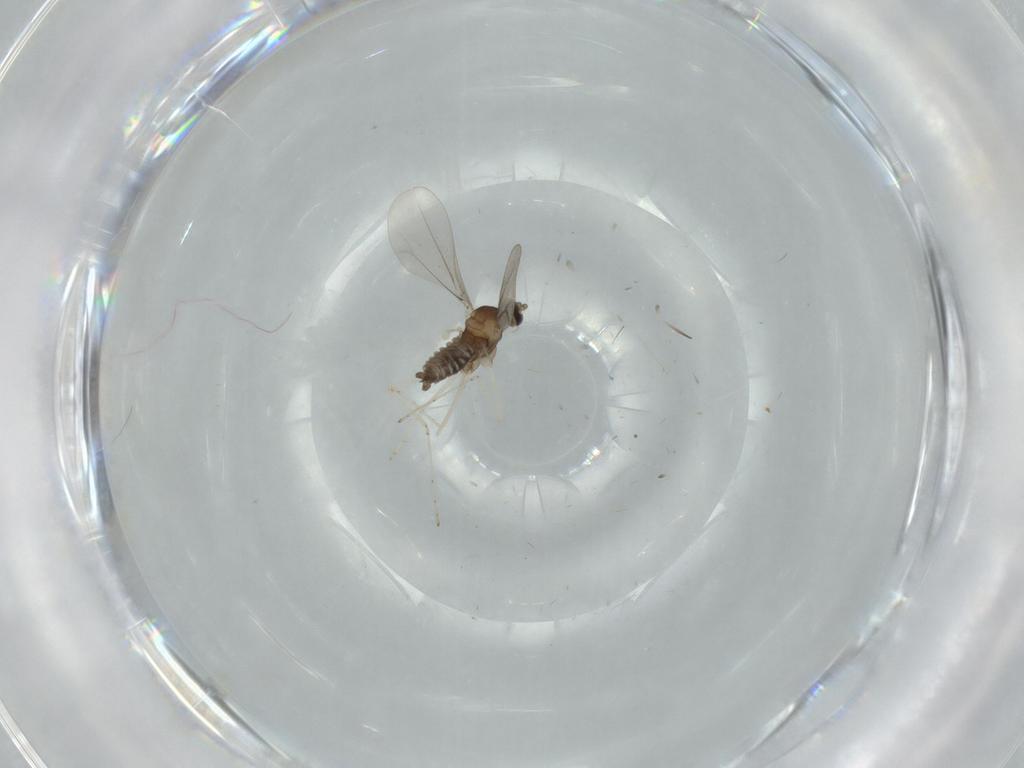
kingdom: Animalia
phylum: Arthropoda
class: Insecta
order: Diptera
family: Cecidomyiidae
